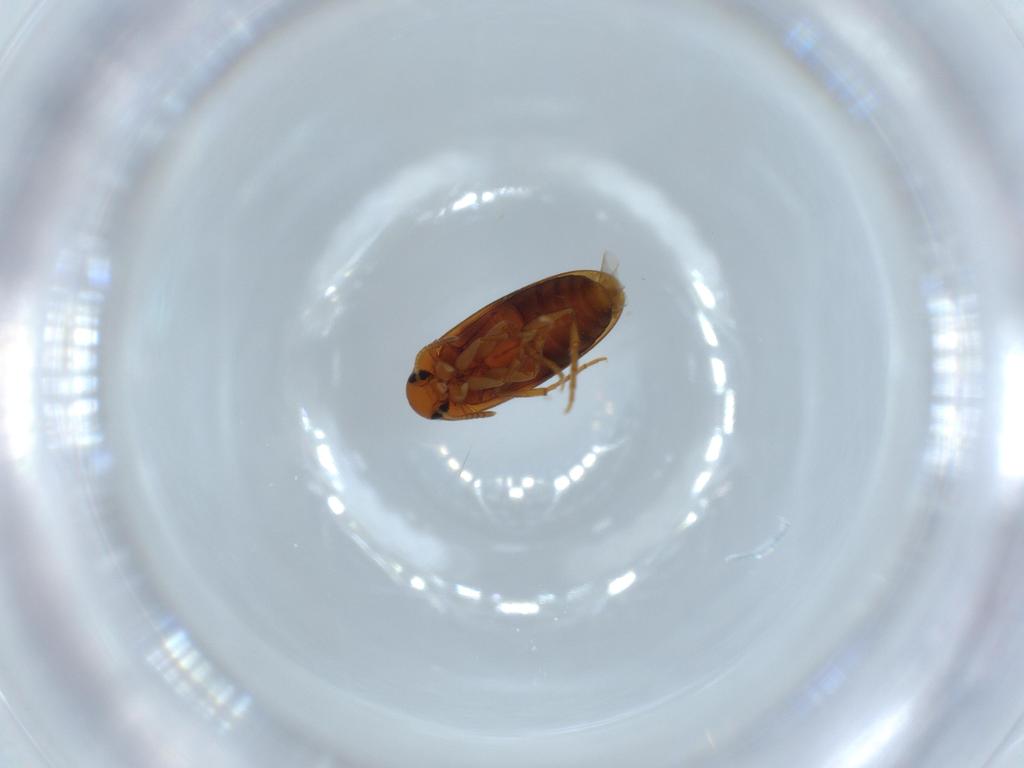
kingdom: Animalia
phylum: Arthropoda
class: Insecta
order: Coleoptera
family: Scraptiidae
